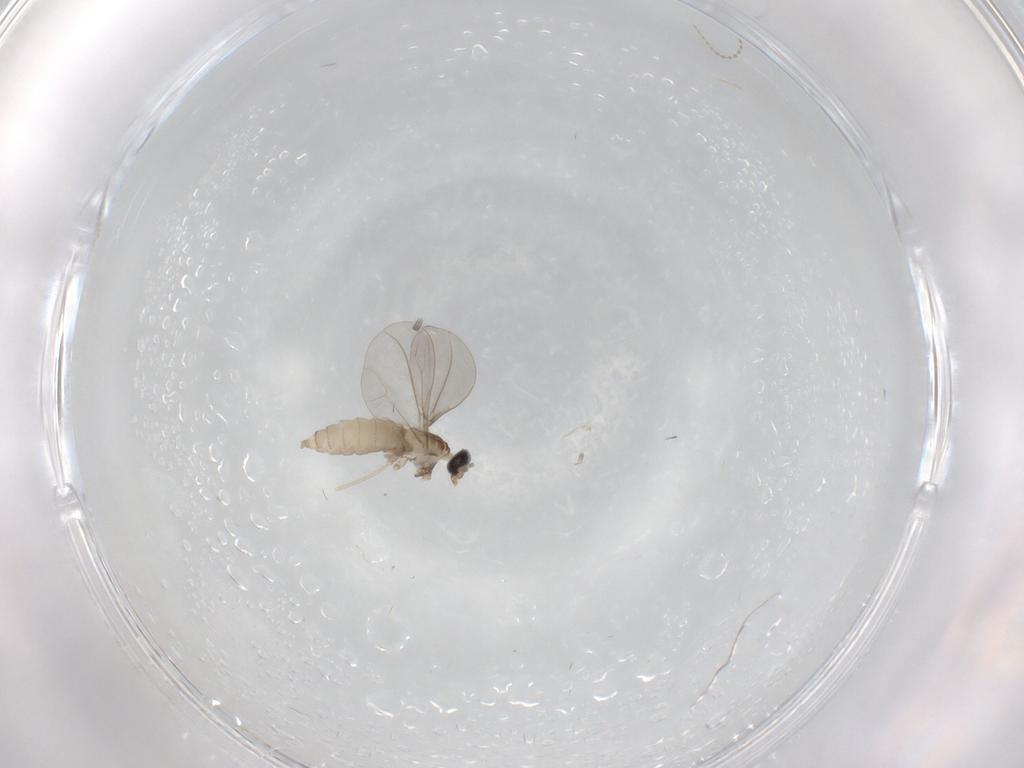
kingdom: Animalia
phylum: Arthropoda
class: Insecta
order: Diptera
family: Cecidomyiidae
